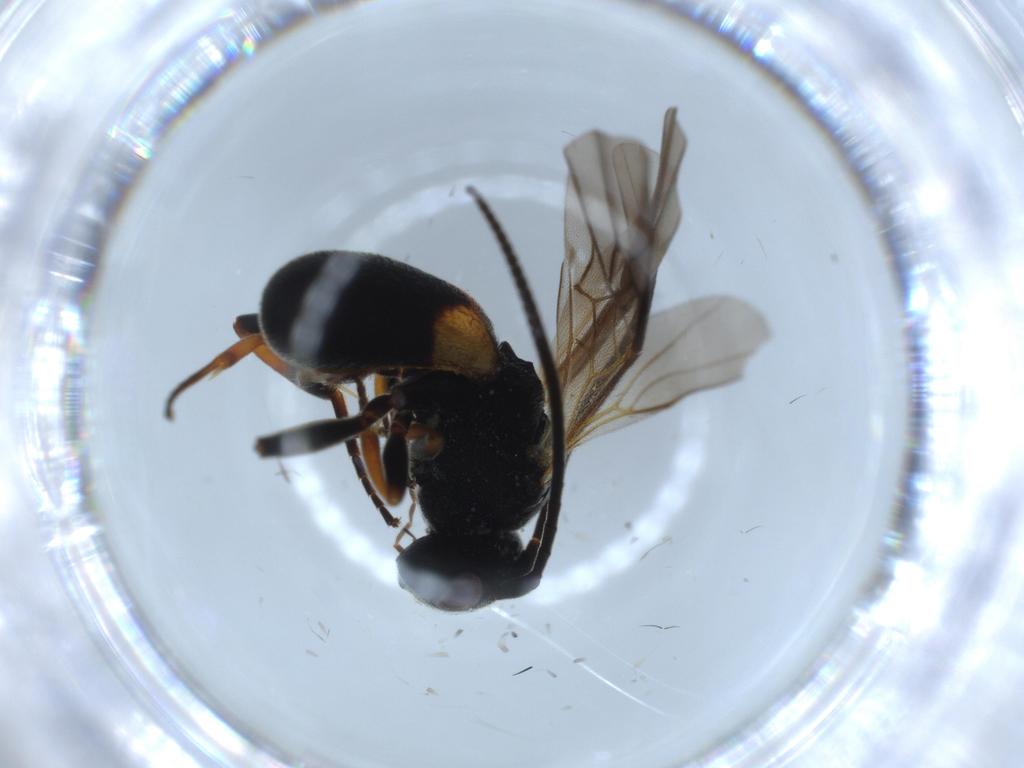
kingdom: Animalia
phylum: Arthropoda
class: Insecta
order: Hymenoptera
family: Braconidae
